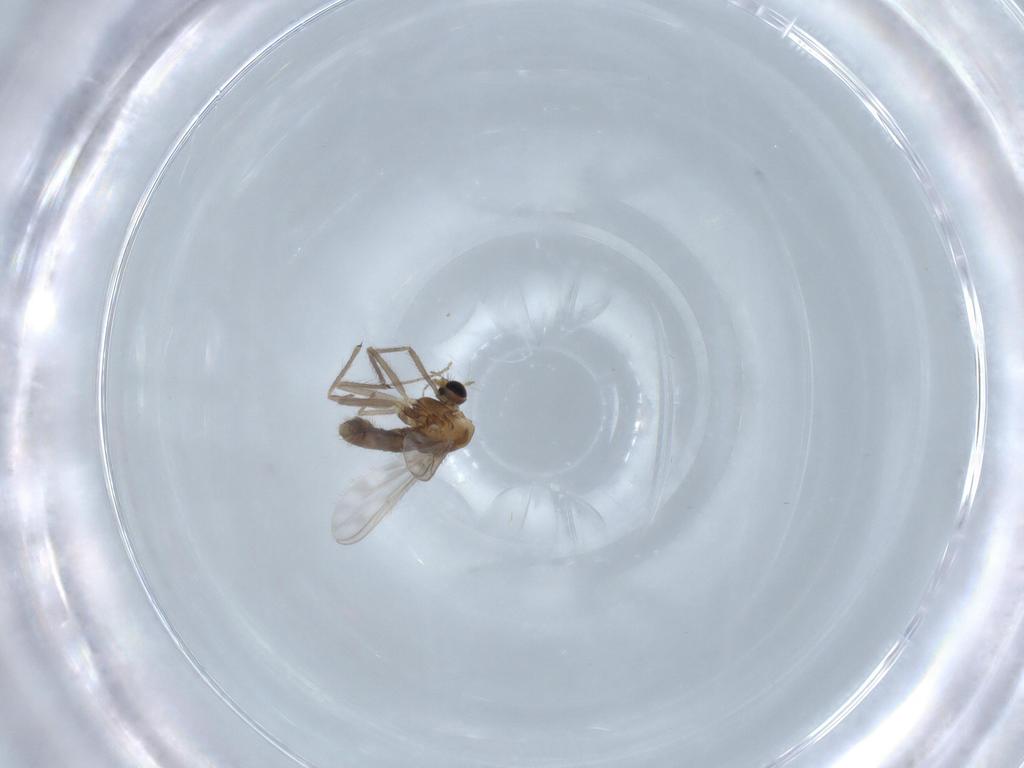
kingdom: Animalia
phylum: Arthropoda
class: Insecta
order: Diptera
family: Chironomidae
